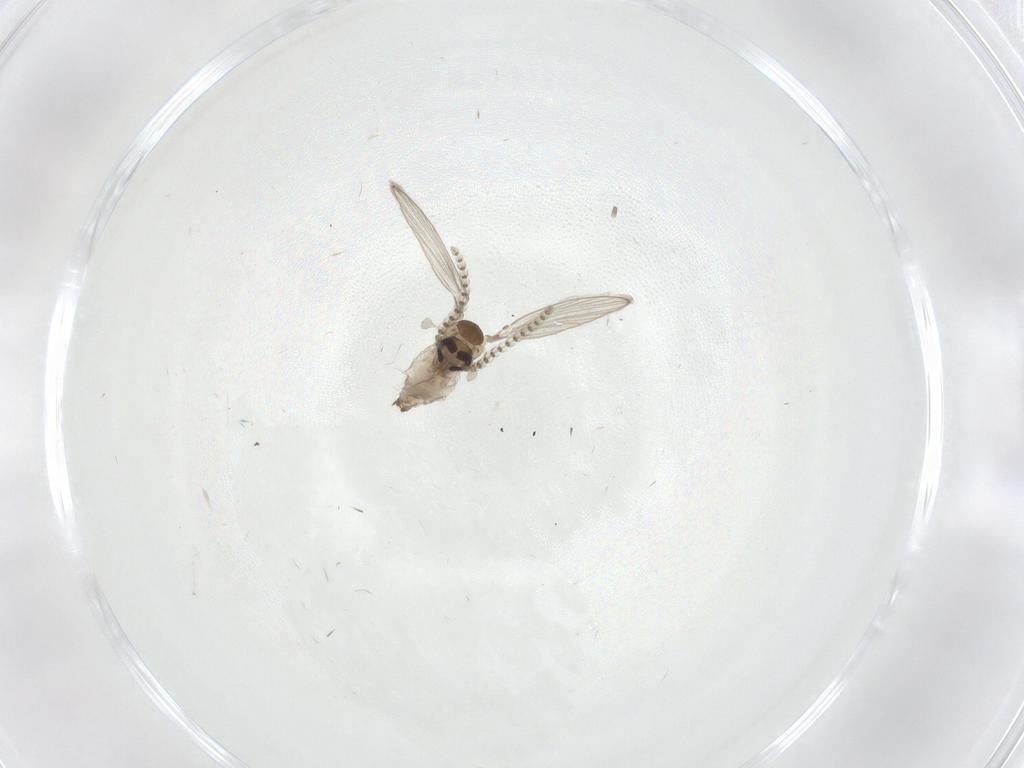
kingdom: Animalia
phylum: Arthropoda
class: Insecta
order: Diptera
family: Psychodidae
